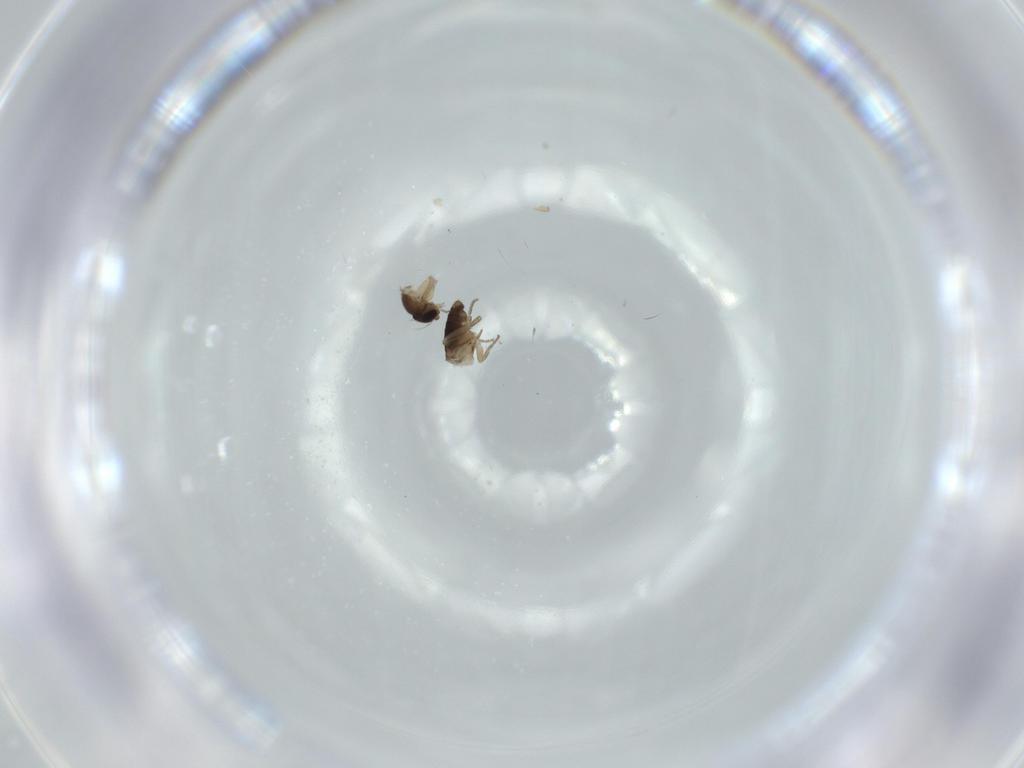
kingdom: Animalia
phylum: Arthropoda
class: Insecta
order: Diptera
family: Phoridae
